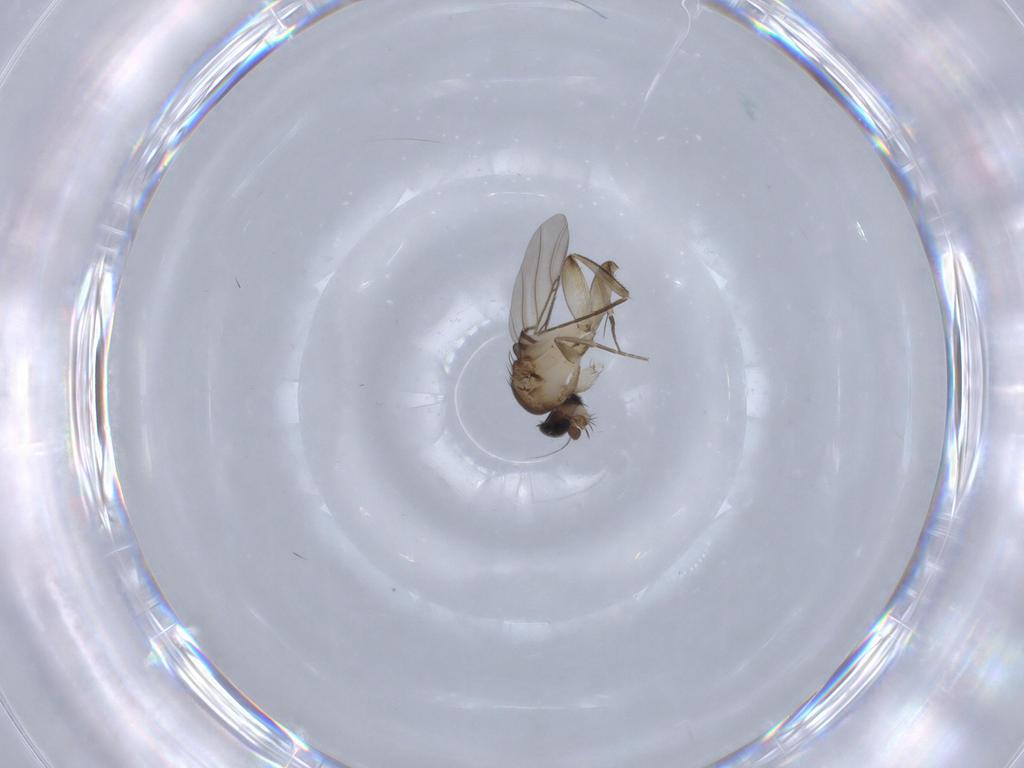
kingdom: Animalia
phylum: Arthropoda
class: Insecta
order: Diptera
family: Phoridae
